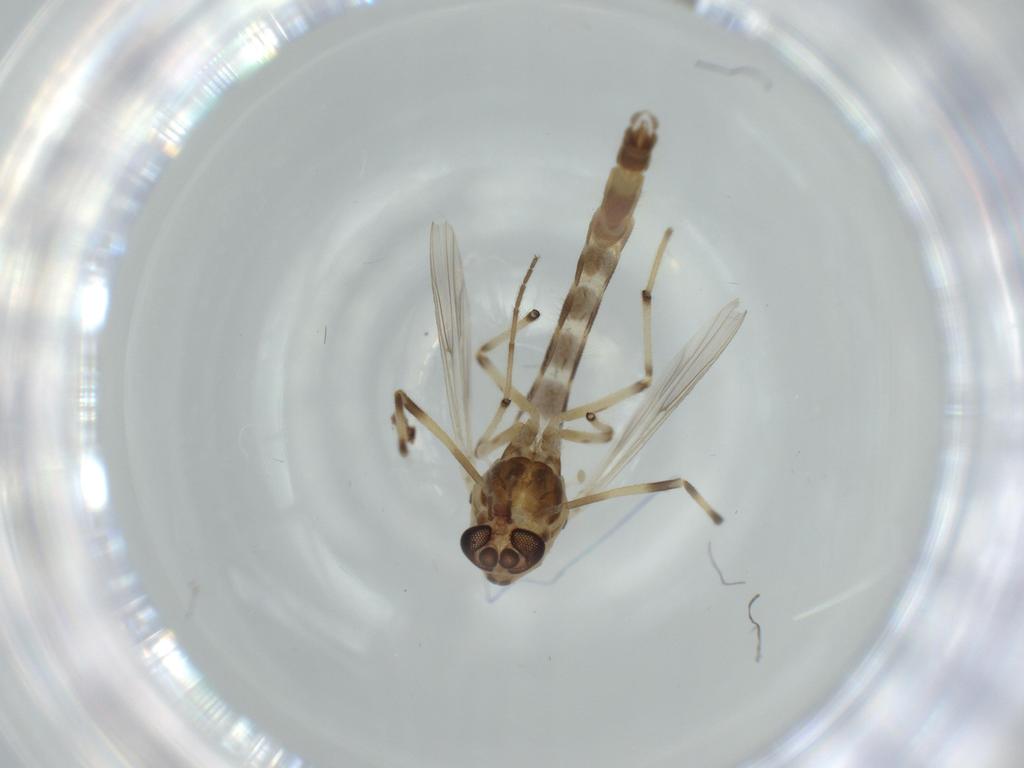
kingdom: Animalia
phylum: Arthropoda
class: Insecta
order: Diptera
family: Cecidomyiidae
